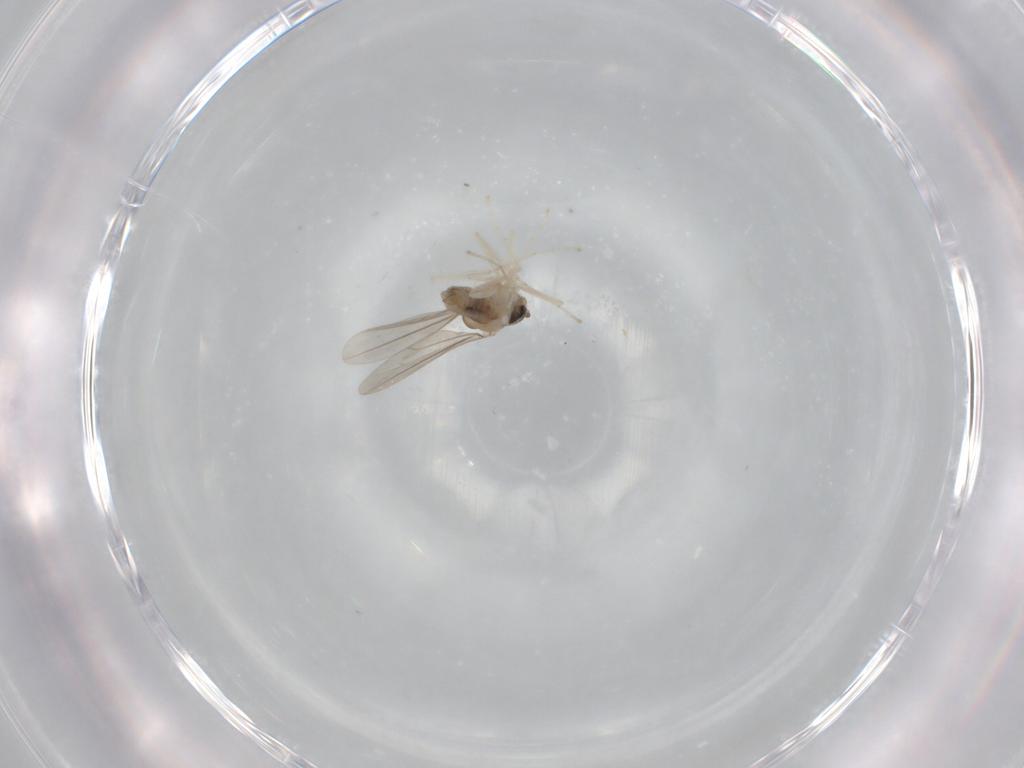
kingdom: Animalia
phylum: Arthropoda
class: Insecta
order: Diptera
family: Cecidomyiidae
